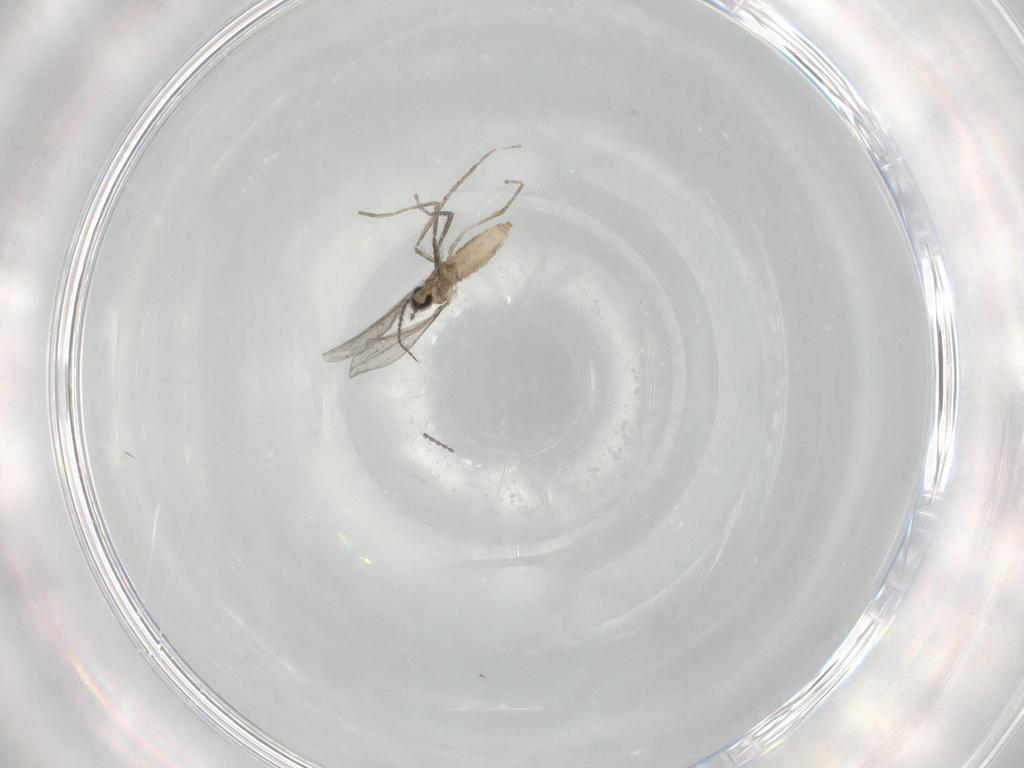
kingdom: Animalia
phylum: Arthropoda
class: Insecta
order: Diptera
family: Cecidomyiidae
